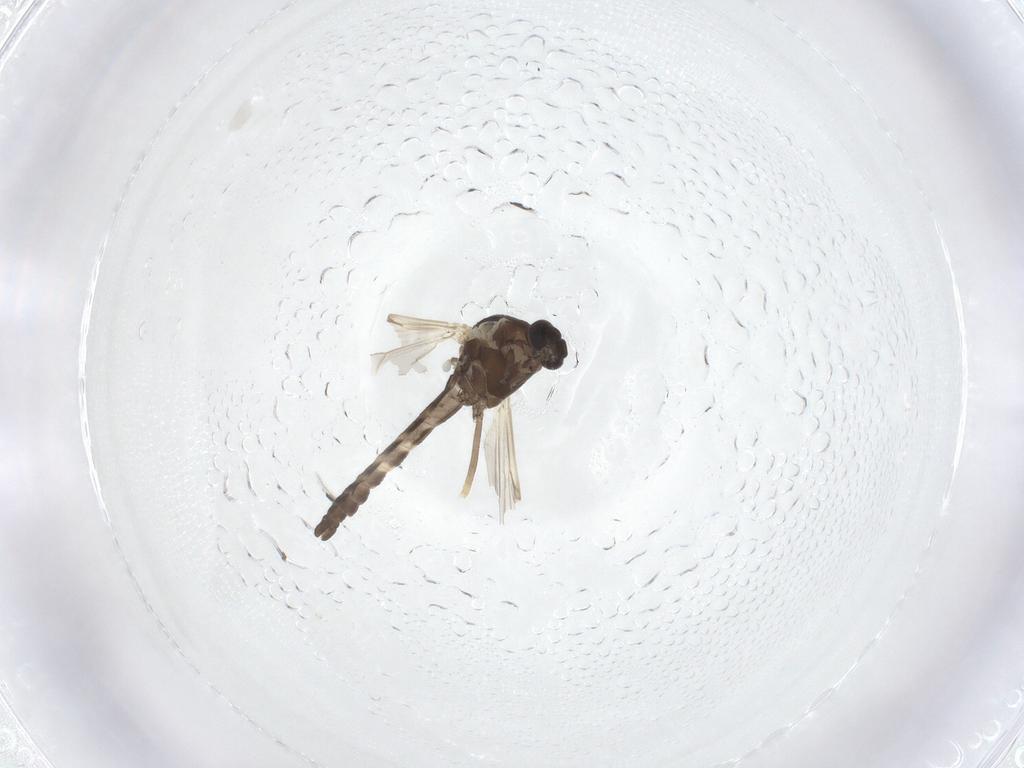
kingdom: Animalia
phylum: Arthropoda
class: Insecta
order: Diptera
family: Ceratopogonidae
